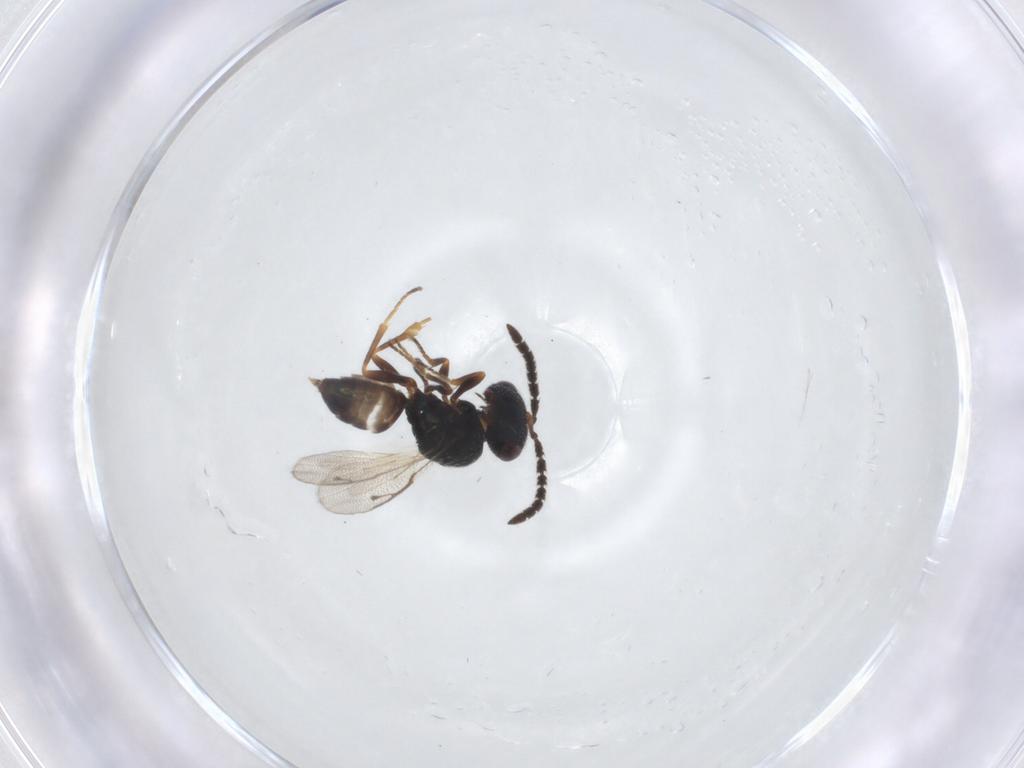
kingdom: Animalia
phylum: Arthropoda
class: Insecta
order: Hymenoptera
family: Pteromalidae
